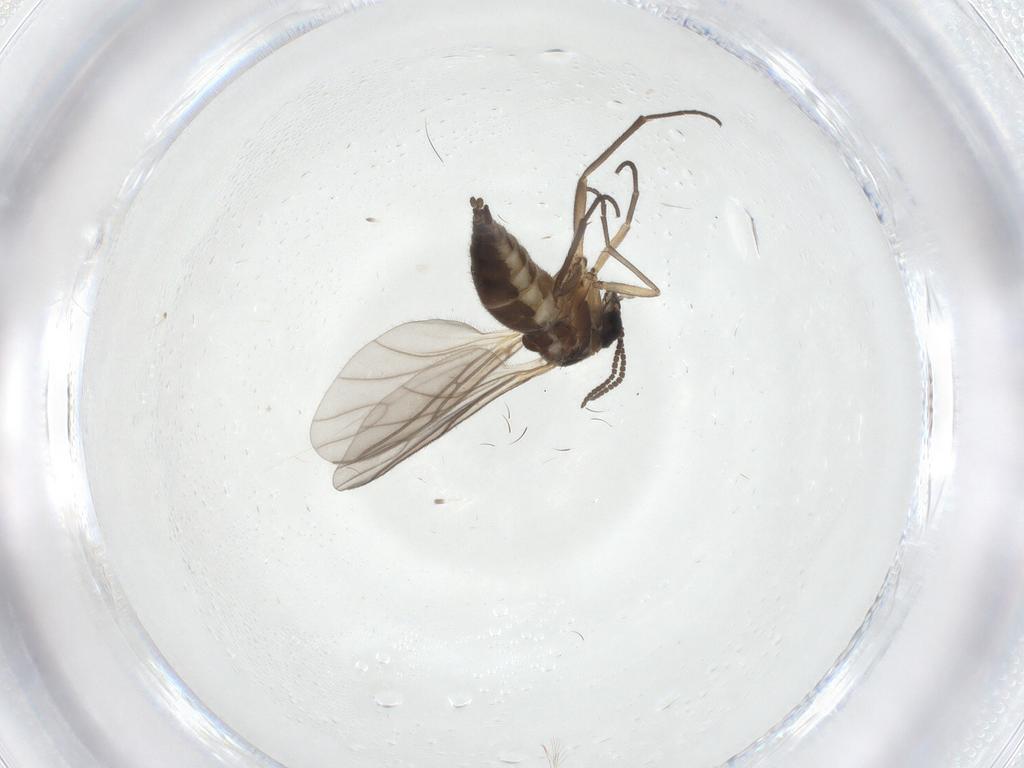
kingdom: Animalia
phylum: Arthropoda
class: Insecta
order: Diptera
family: Sciaridae
